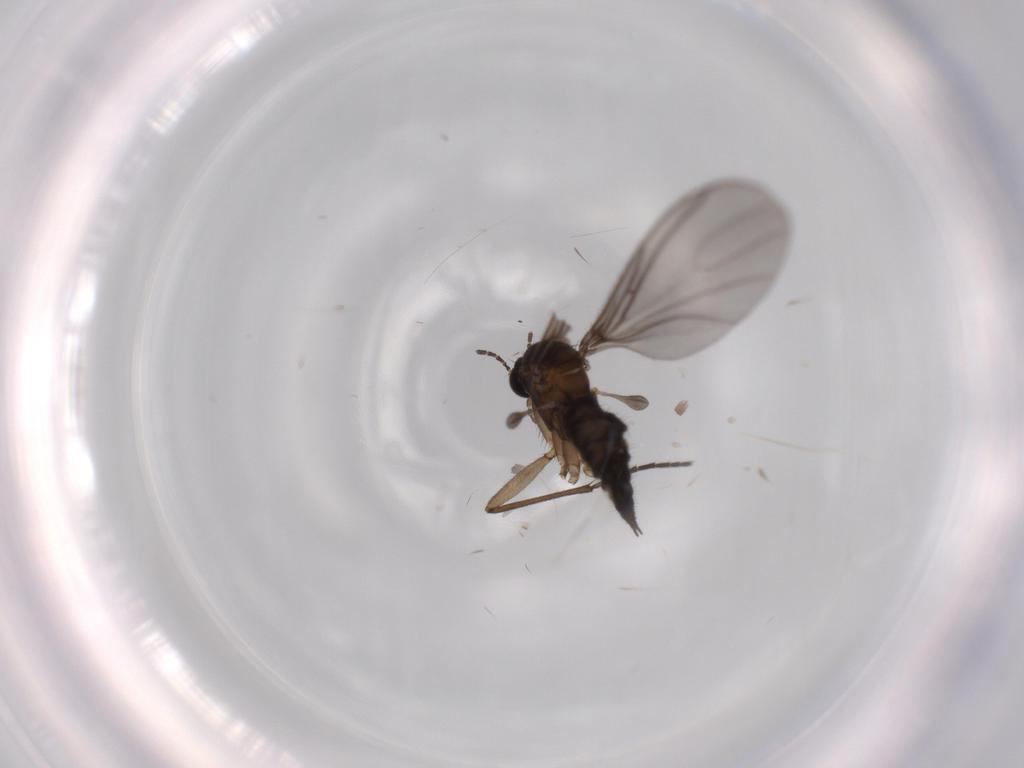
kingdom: Animalia
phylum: Arthropoda
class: Insecta
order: Diptera
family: Sciaridae
